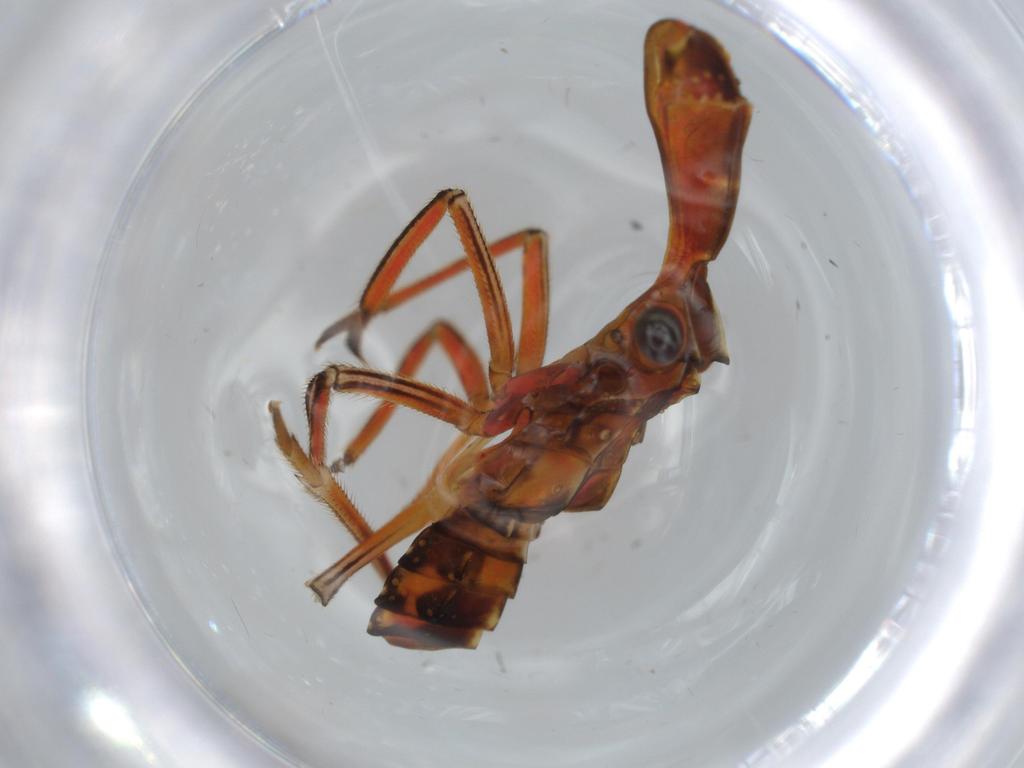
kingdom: Animalia
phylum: Arthropoda
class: Insecta
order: Hemiptera
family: Fulgoridae
